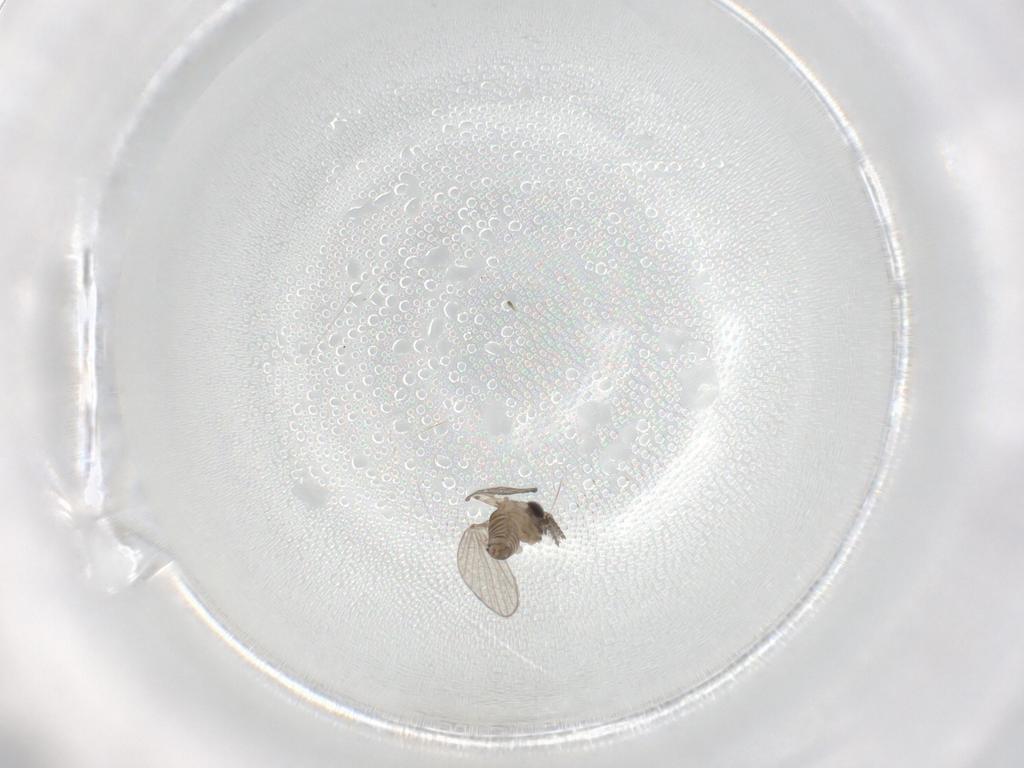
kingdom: Animalia
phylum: Arthropoda
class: Insecta
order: Diptera
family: Psychodidae
